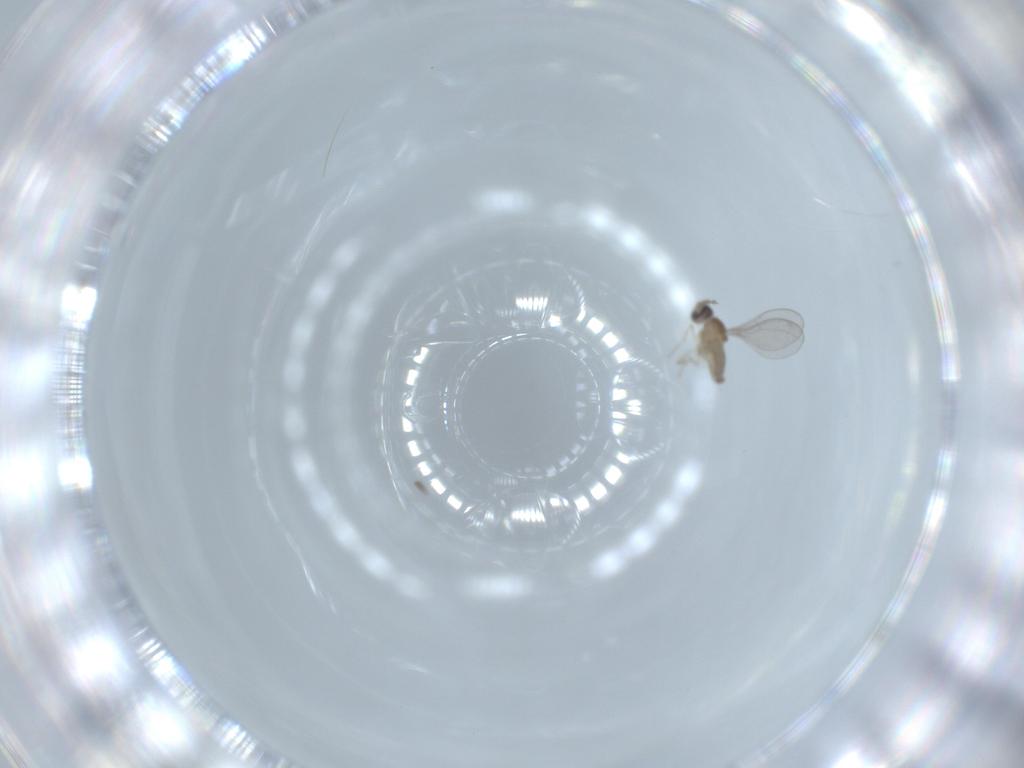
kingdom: Animalia
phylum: Arthropoda
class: Insecta
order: Diptera
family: Cecidomyiidae
